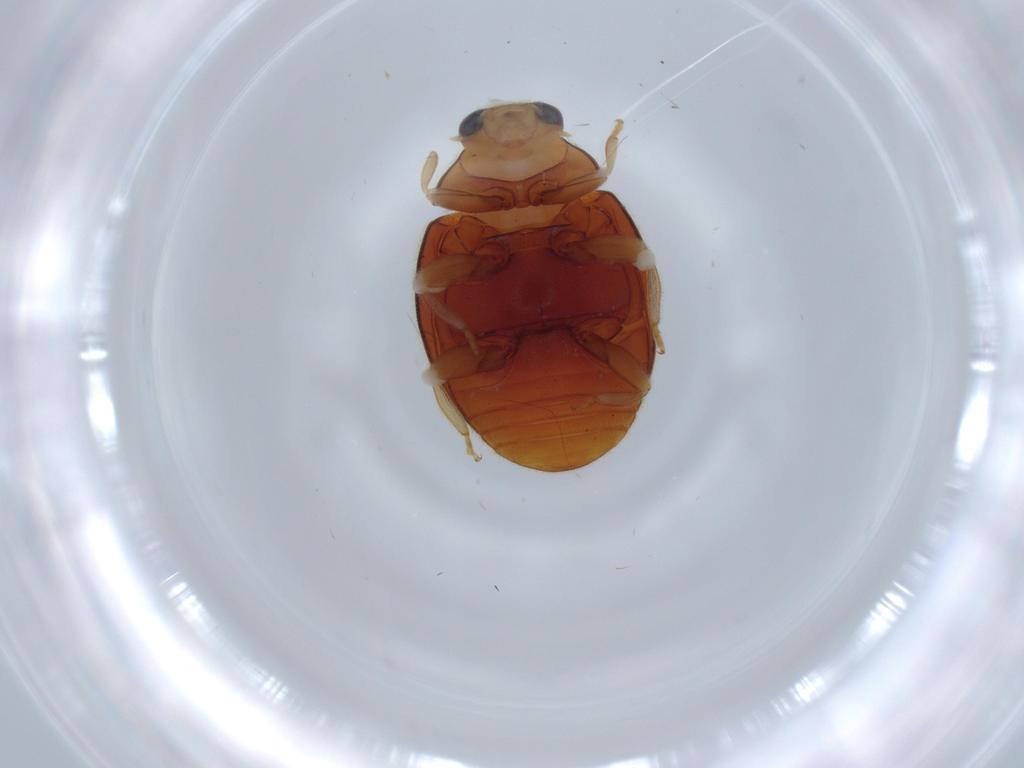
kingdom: Animalia
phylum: Arthropoda
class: Insecta
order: Coleoptera
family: Coccinellidae
